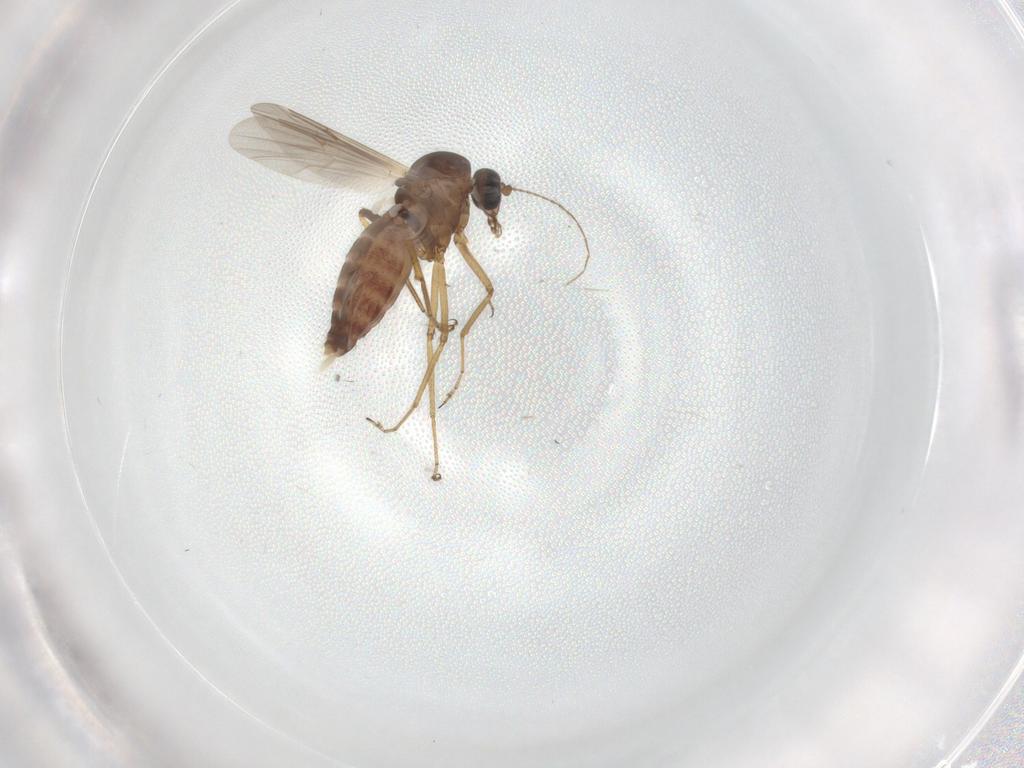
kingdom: Animalia
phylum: Arthropoda
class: Insecta
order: Diptera
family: Ceratopogonidae
